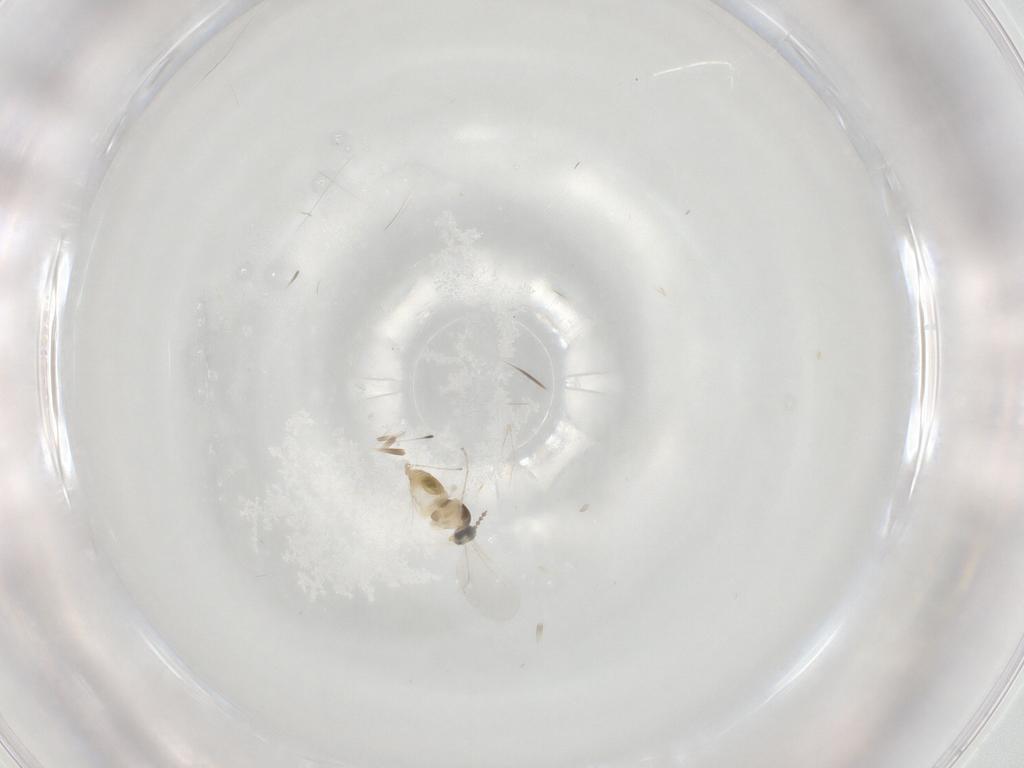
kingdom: Animalia
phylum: Arthropoda
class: Insecta
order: Diptera
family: Cecidomyiidae
